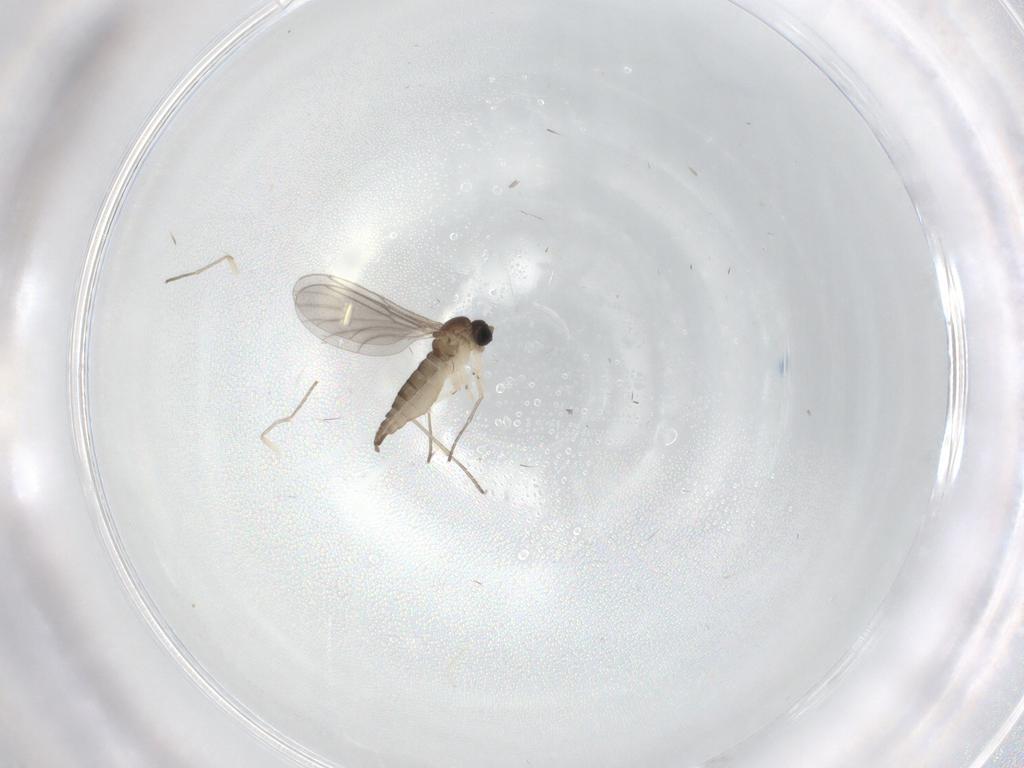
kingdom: Animalia
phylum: Arthropoda
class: Insecta
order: Diptera
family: Sciaridae
